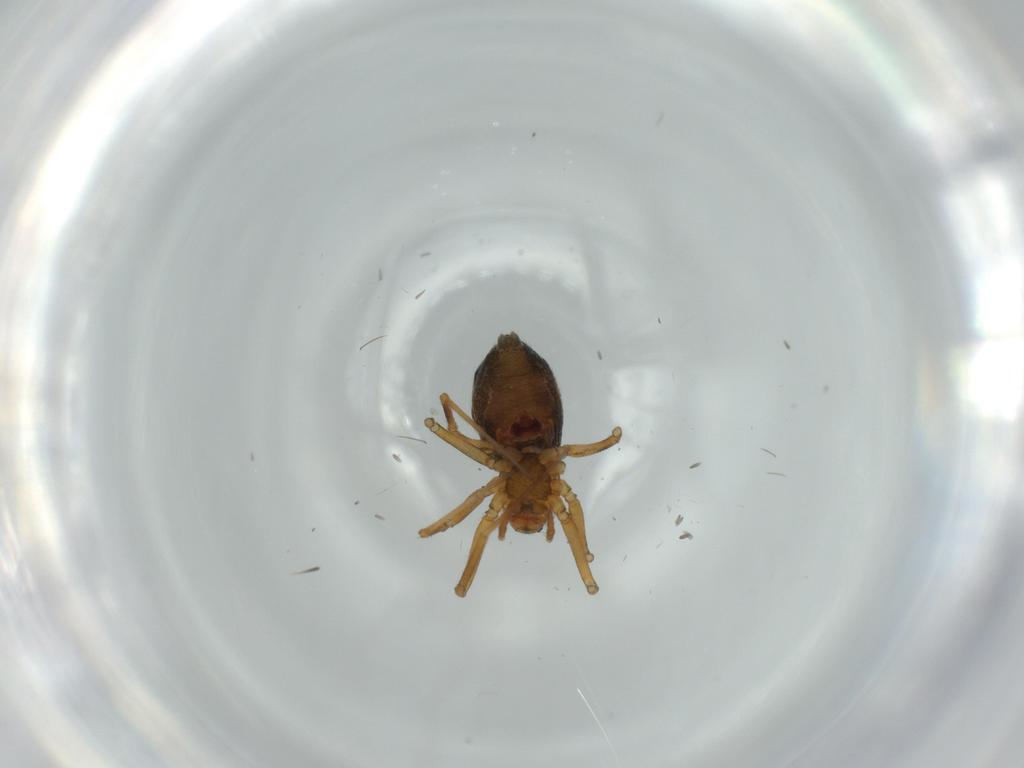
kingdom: Animalia
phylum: Arthropoda
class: Arachnida
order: Araneae
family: Linyphiidae
